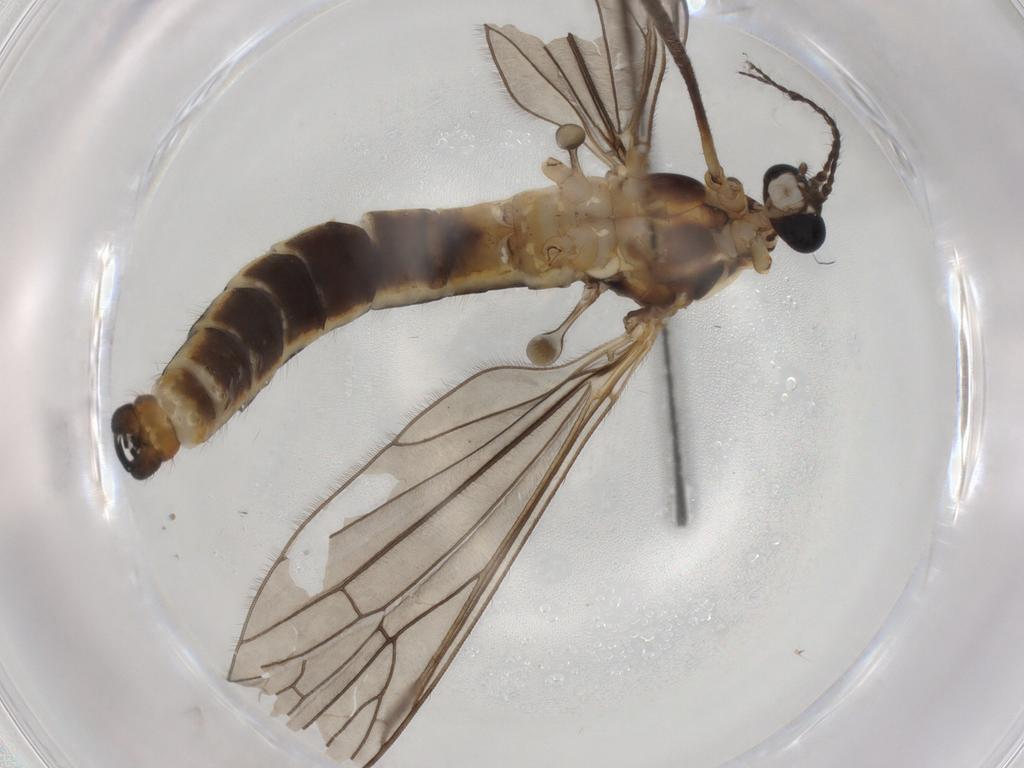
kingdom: Animalia
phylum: Arthropoda
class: Insecta
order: Diptera
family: Limoniidae
